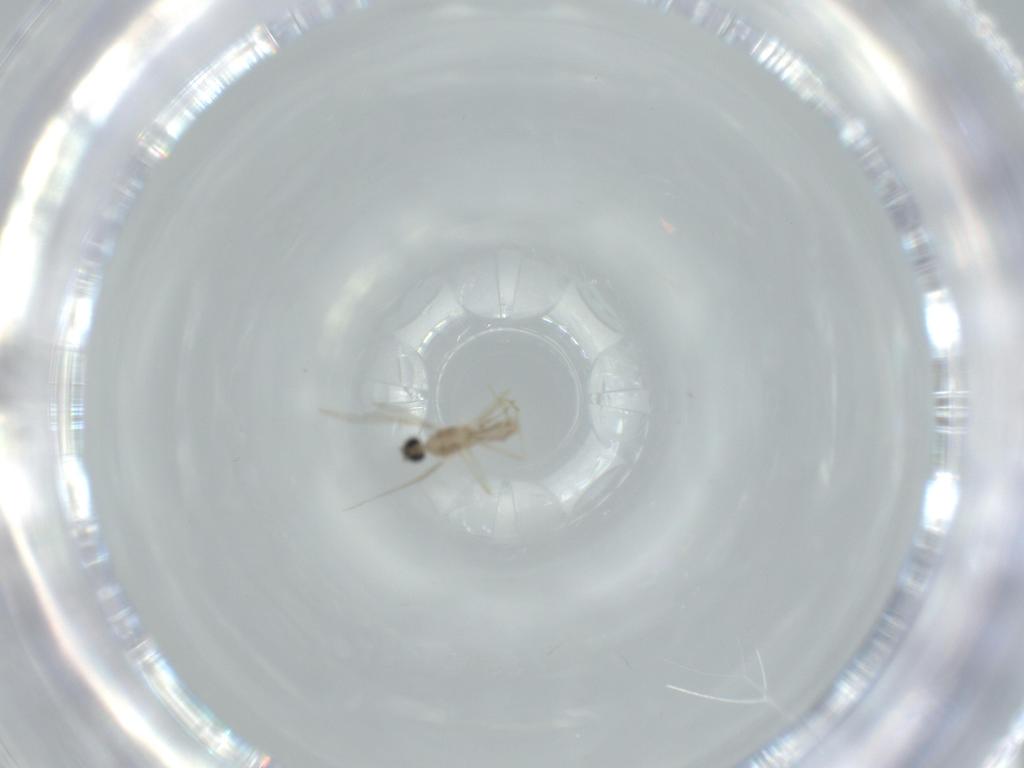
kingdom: Animalia
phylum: Arthropoda
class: Insecta
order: Diptera
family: Cecidomyiidae
